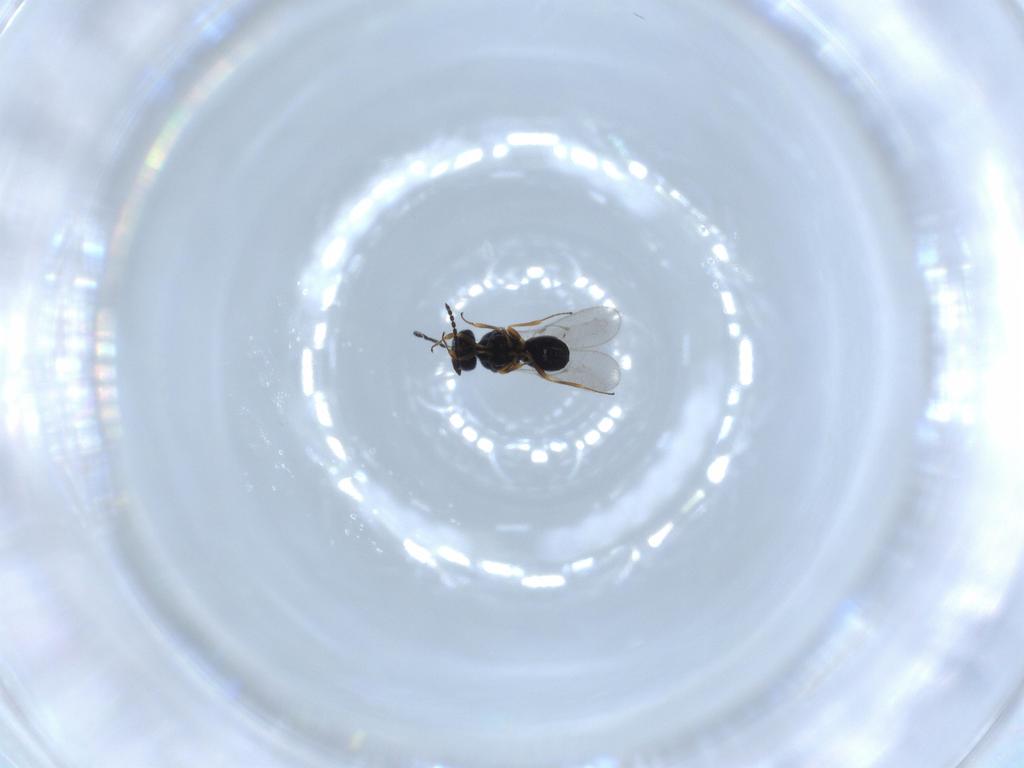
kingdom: Animalia
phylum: Arthropoda
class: Insecta
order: Hymenoptera
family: Scelionidae
